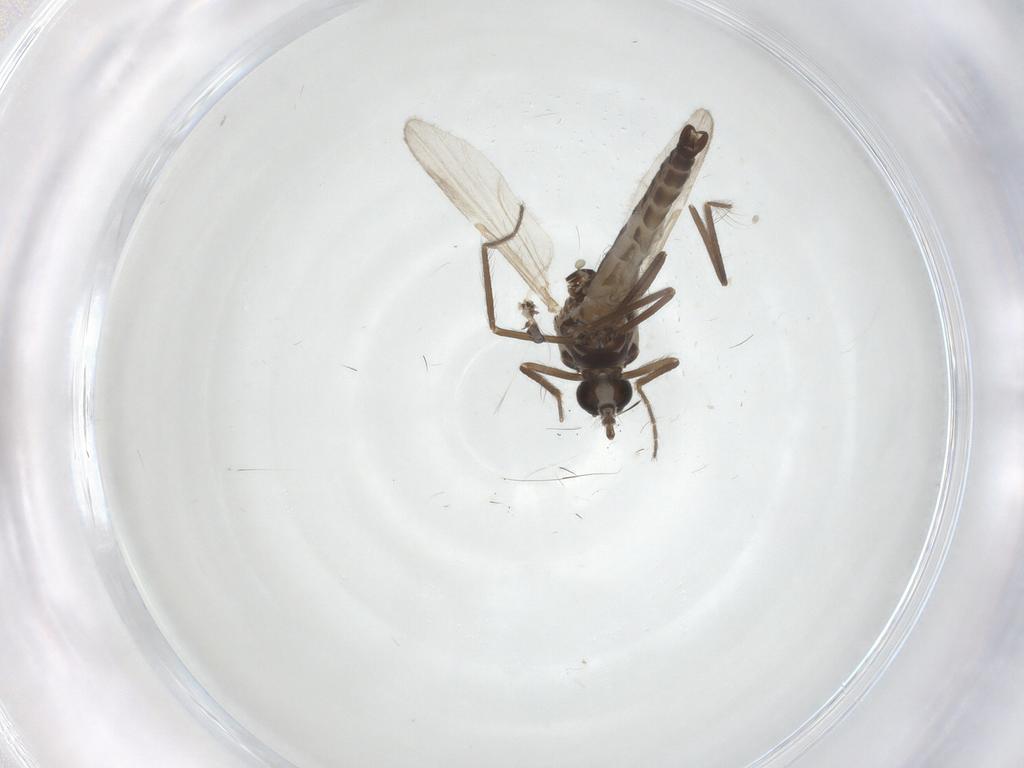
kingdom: Animalia
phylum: Arthropoda
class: Insecta
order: Diptera
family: Ceratopogonidae
